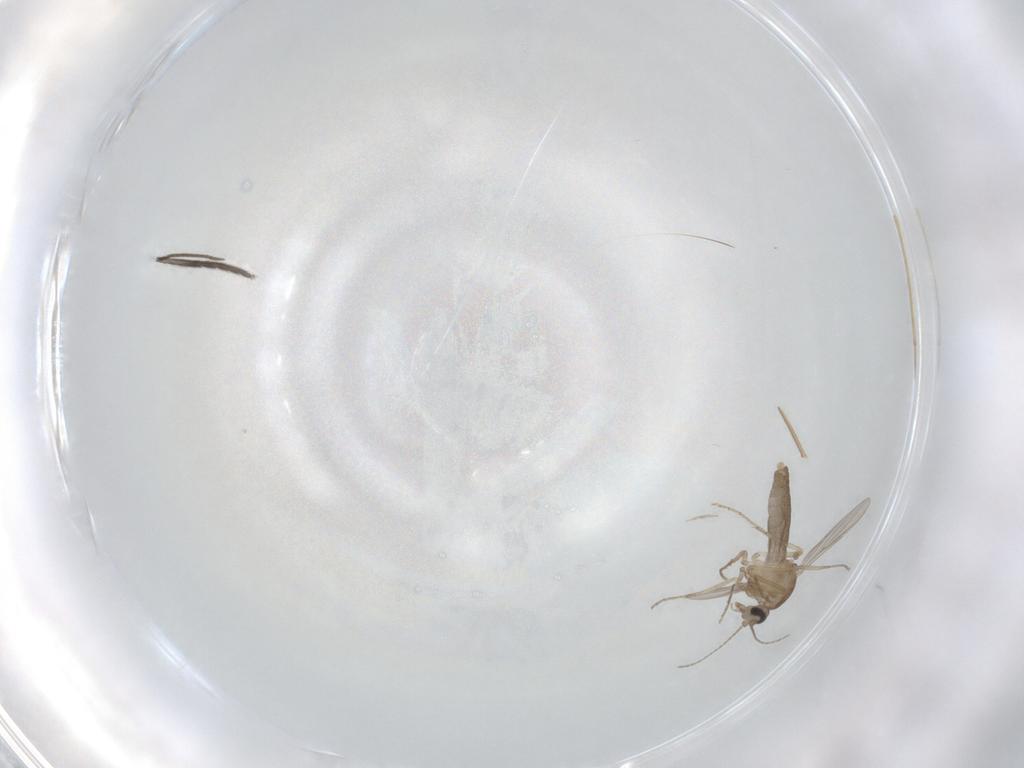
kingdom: Animalia
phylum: Arthropoda
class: Insecta
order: Diptera
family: Ceratopogonidae
